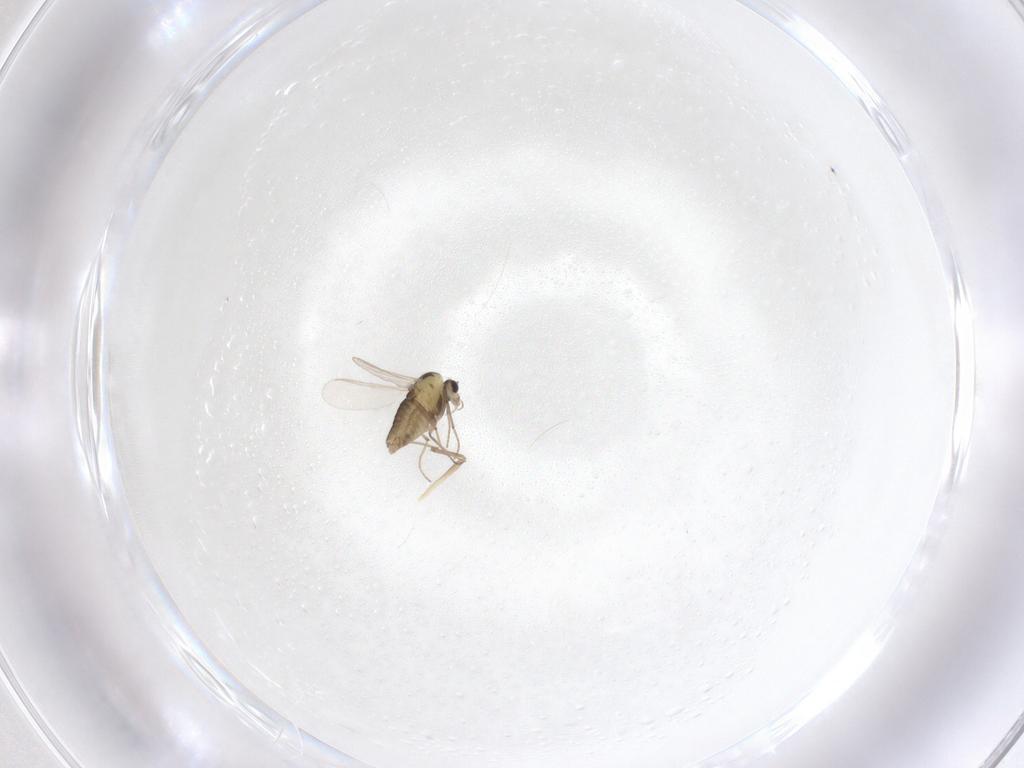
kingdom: Animalia
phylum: Arthropoda
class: Insecta
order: Diptera
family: Chironomidae
